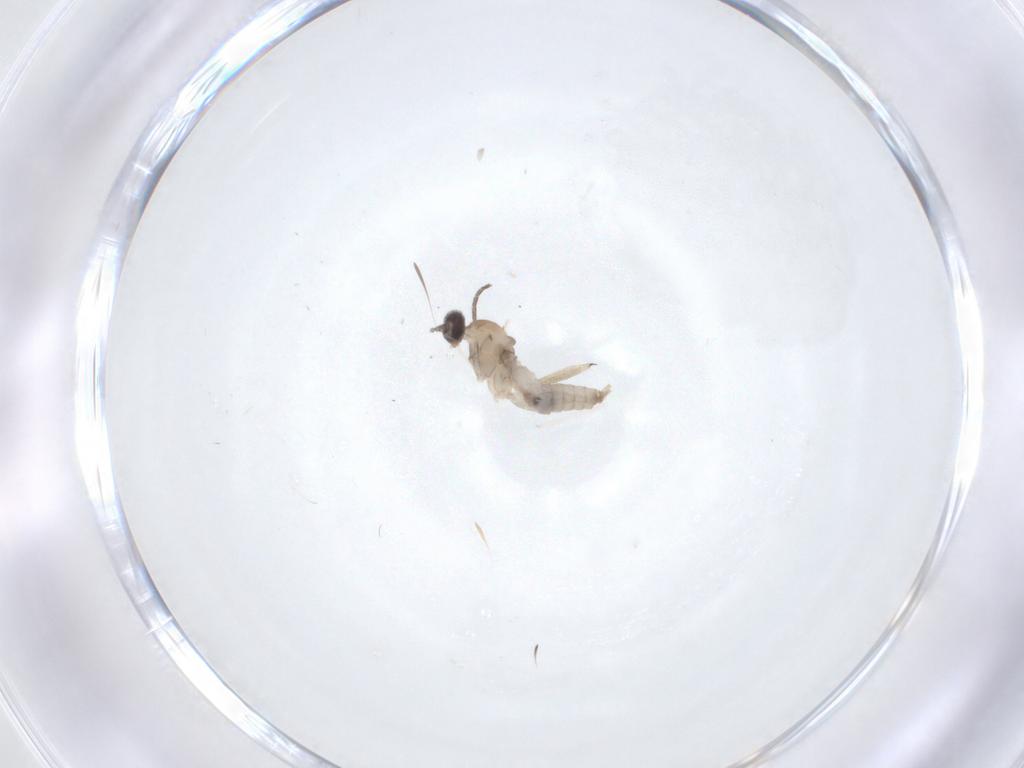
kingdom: Animalia
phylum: Arthropoda
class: Insecta
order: Diptera
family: Cecidomyiidae
